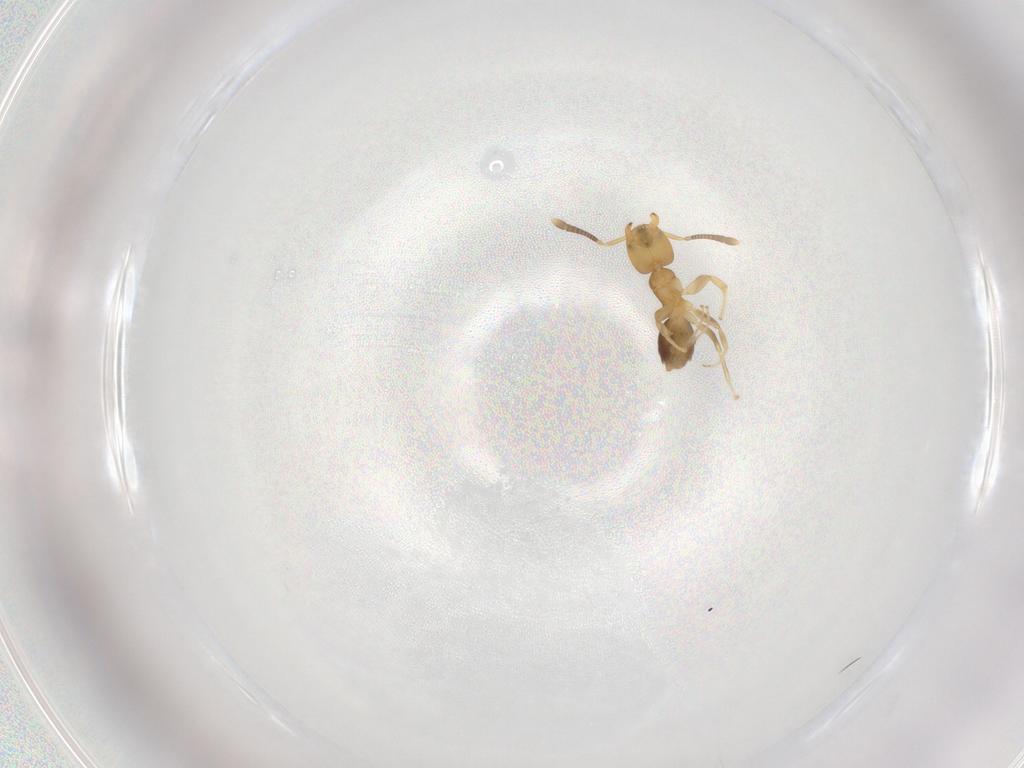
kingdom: Animalia
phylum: Arthropoda
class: Insecta
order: Hymenoptera
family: Formicidae
